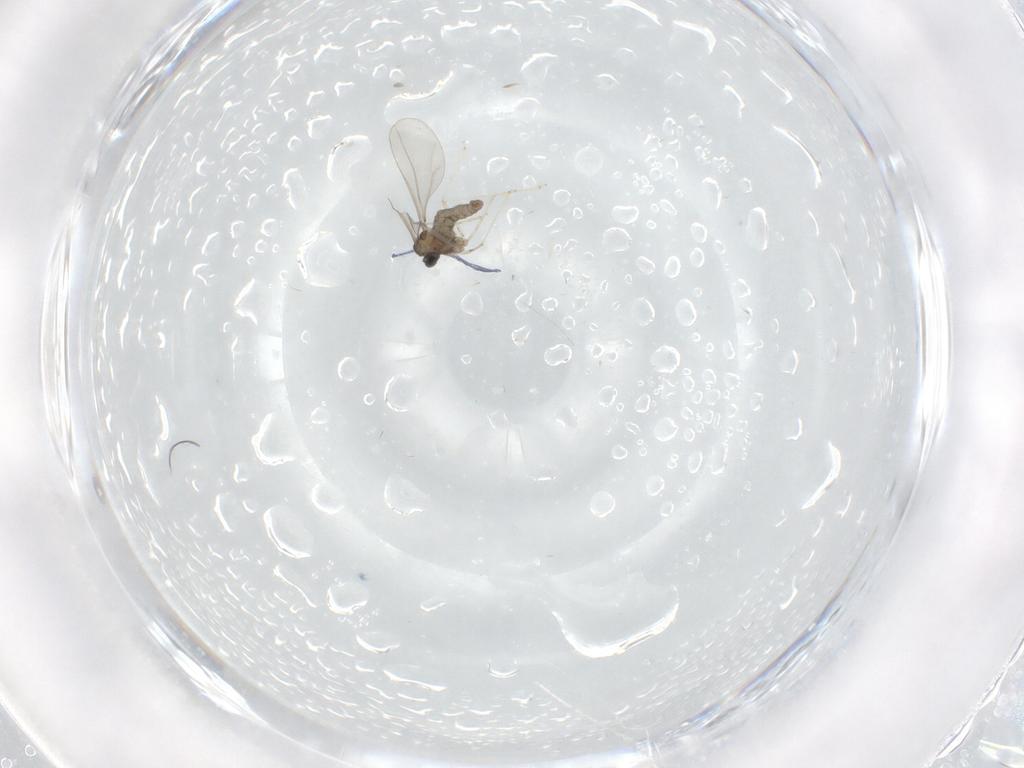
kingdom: Animalia
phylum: Arthropoda
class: Insecta
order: Diptera
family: Cecidomyiidae
